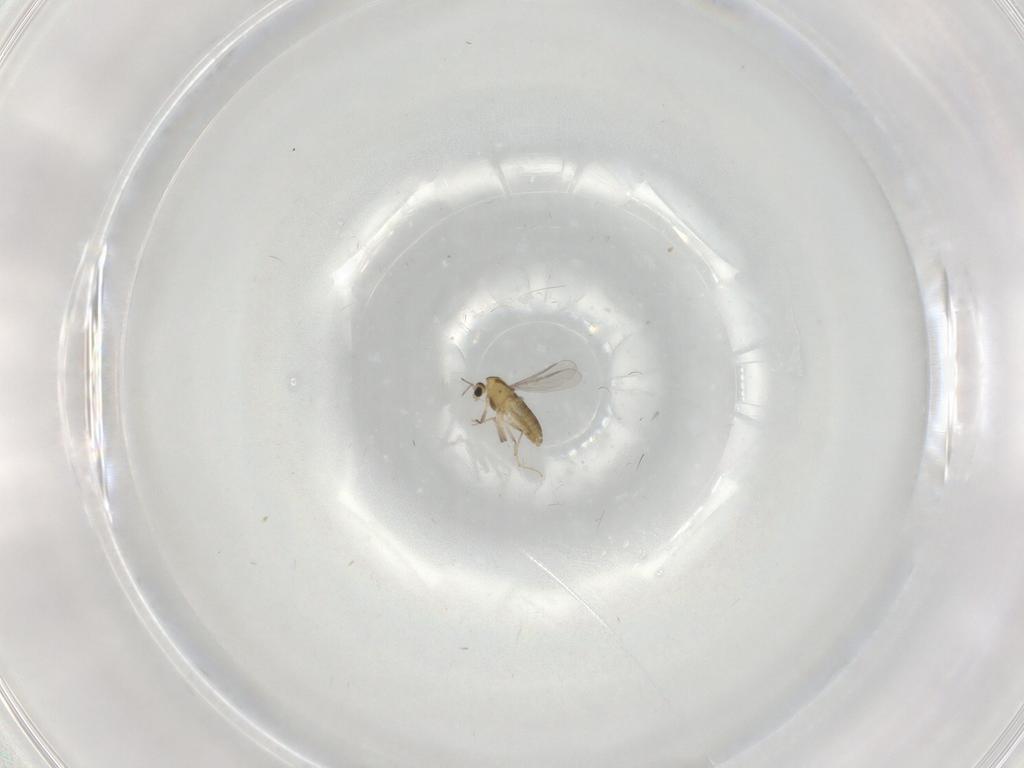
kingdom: Animalia
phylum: Arthropoda
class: Insecta
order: Diptera
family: Chironomidae
